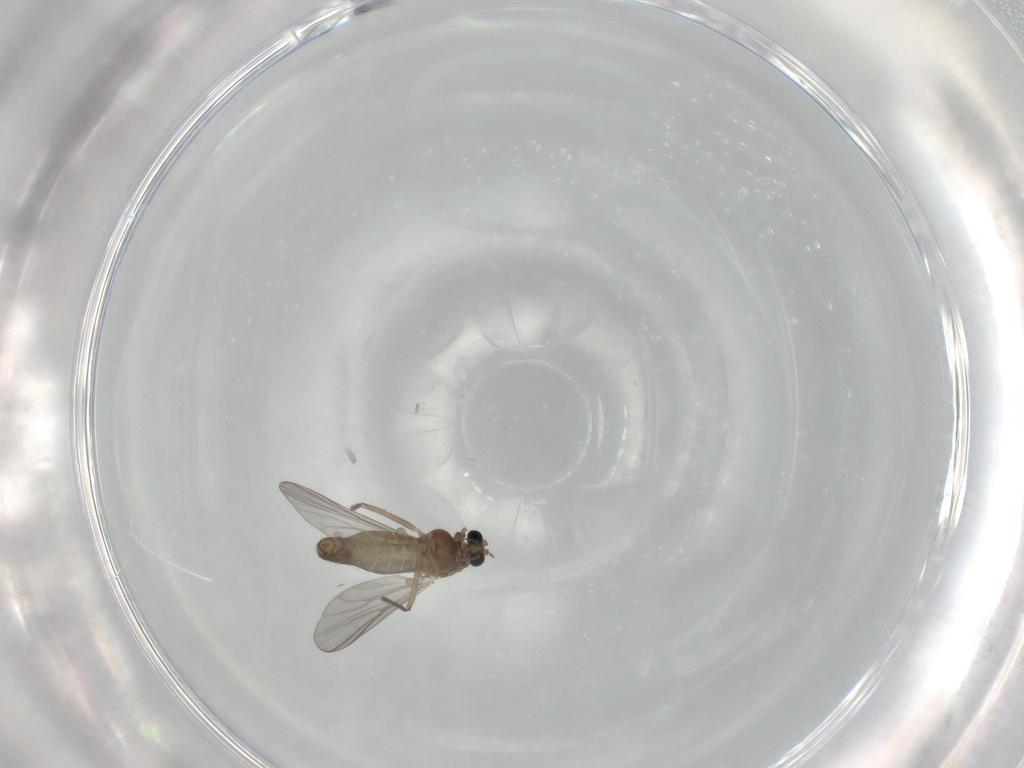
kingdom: Animalia
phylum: Arthropoda
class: Insecta
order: Diptera
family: Chironomidae
